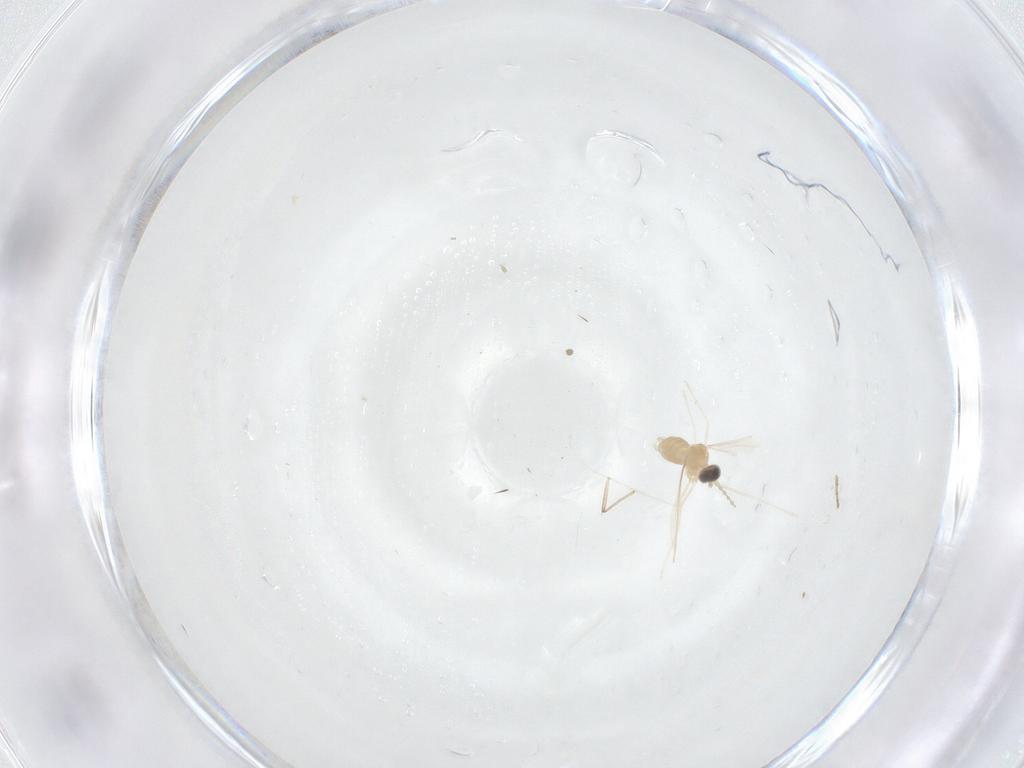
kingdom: Animalia
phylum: Arthropoda
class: Insecta
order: Diptera
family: Cecidomyiidae
